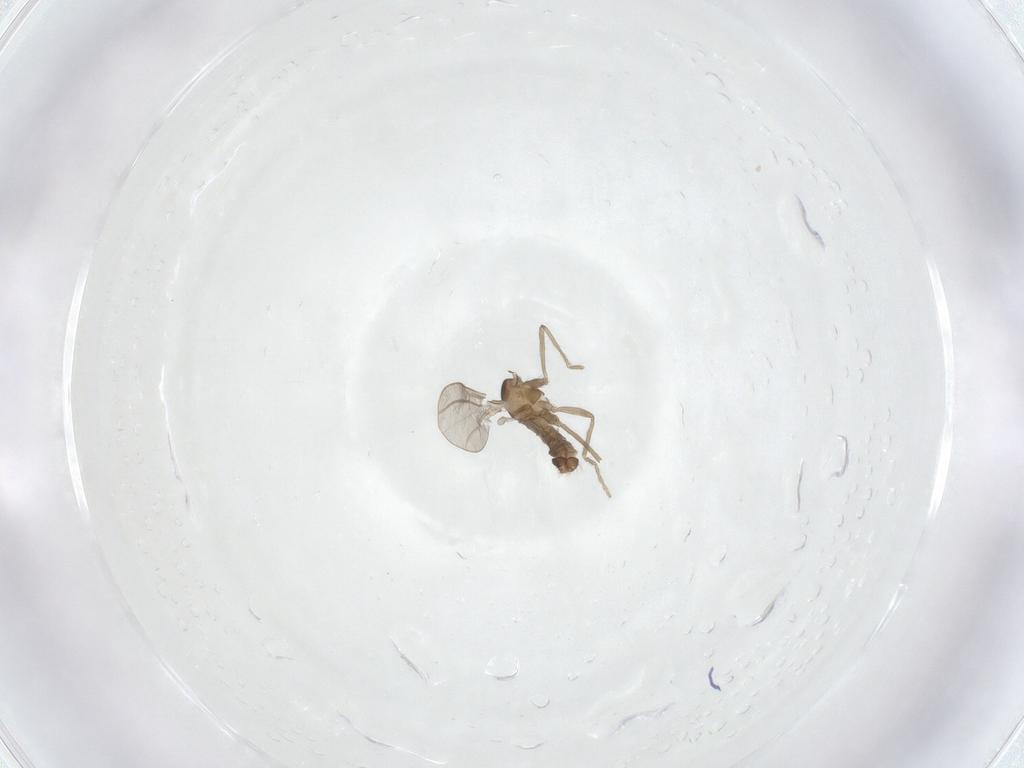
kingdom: Animalia
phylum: Arthropoda
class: Insecta
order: Diptera
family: Cecidomyiidae
